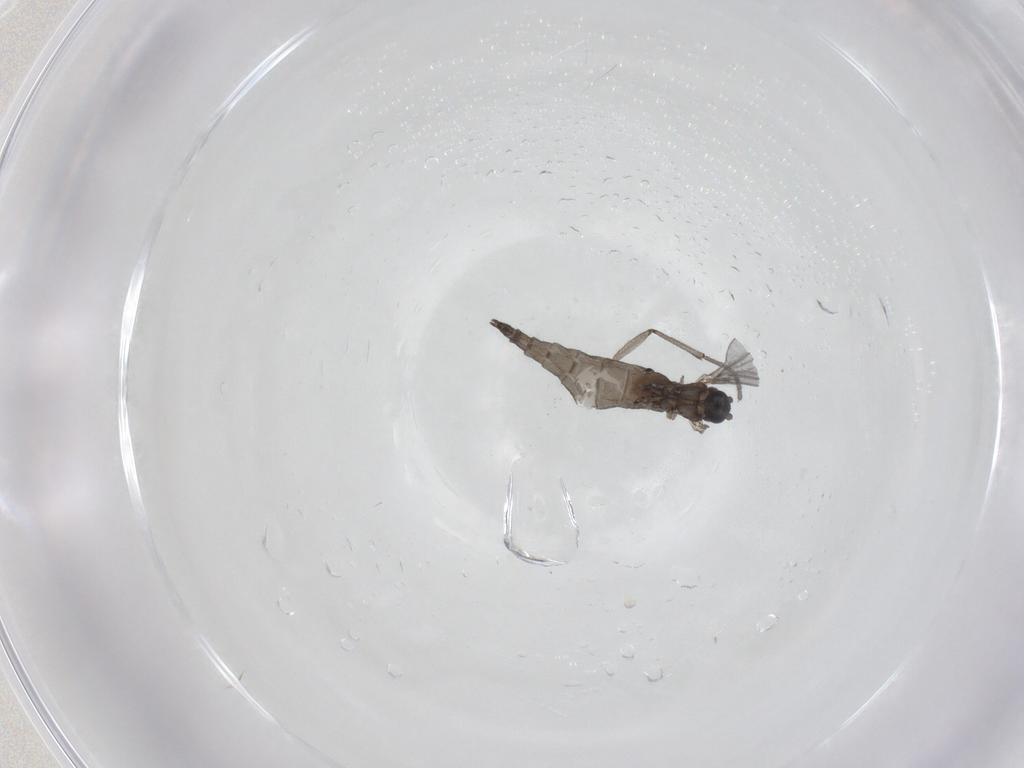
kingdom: Animalia
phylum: Arthropoda
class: Insecta
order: Diptera
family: Sciaridae
